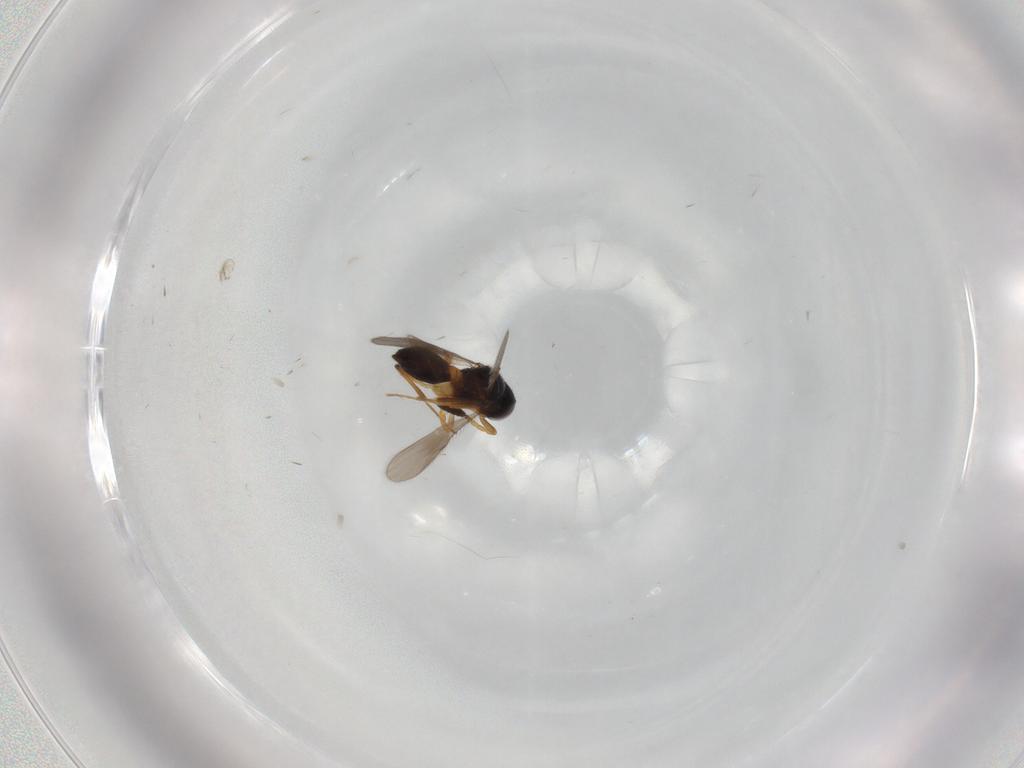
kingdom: Animalia
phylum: Arthropoda
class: Insecta
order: Hymenoptera
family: Scelionidae
